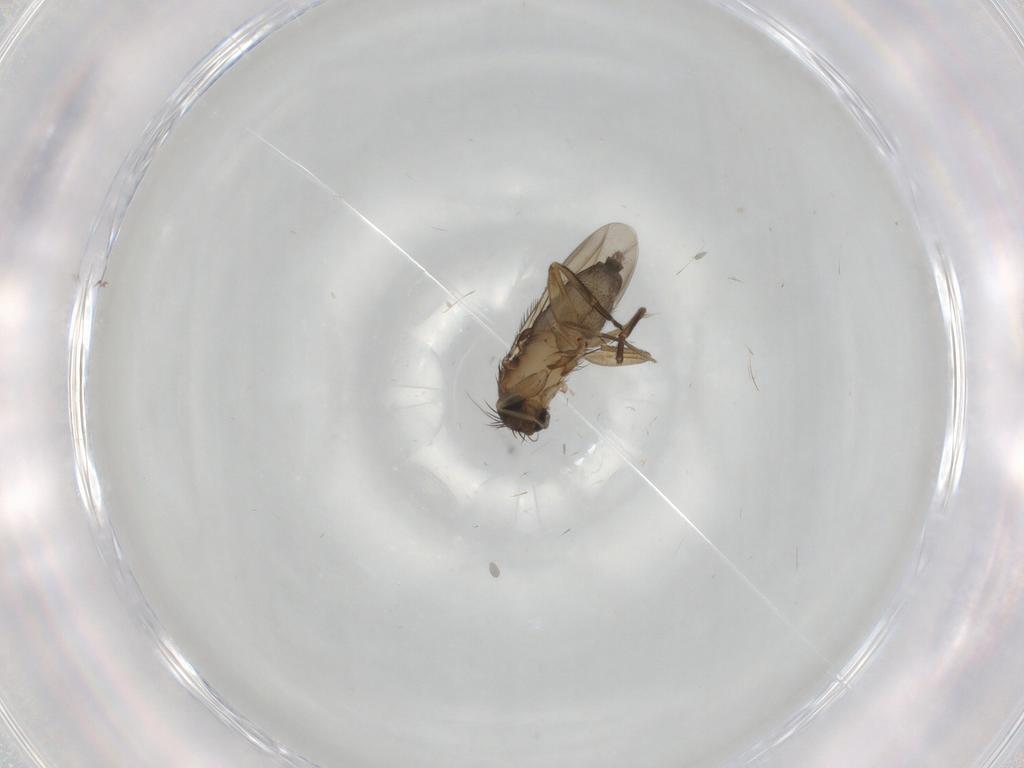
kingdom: Animalia
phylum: Arthropoda
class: Insecta
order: Diptera
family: Phoridae
